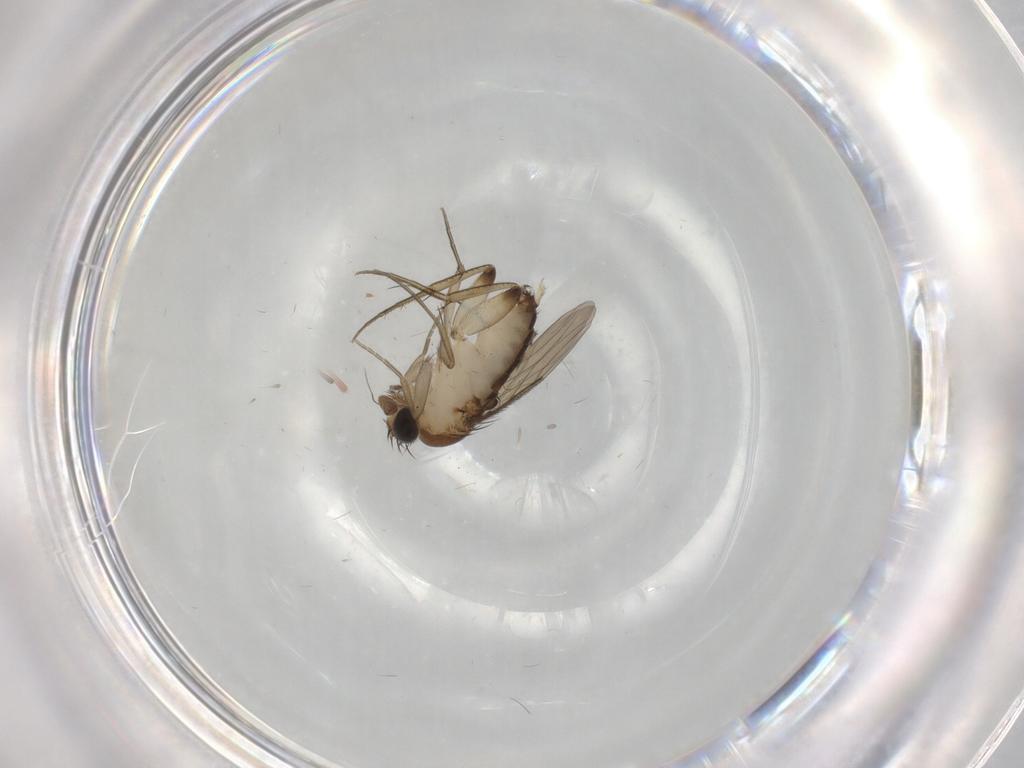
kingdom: Animalia
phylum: Arthropoda
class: Insecta
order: Diptera
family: Phoridae
